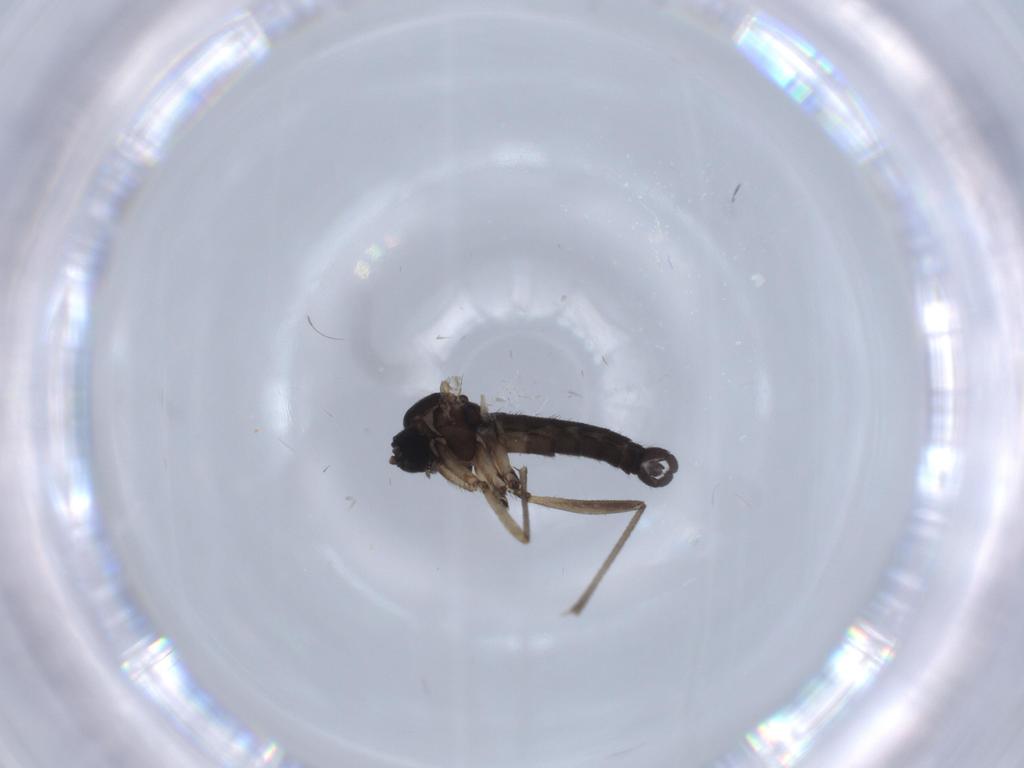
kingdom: Animalia
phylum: Arthropoda
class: Insecta
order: Diptera
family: Sciaridae
